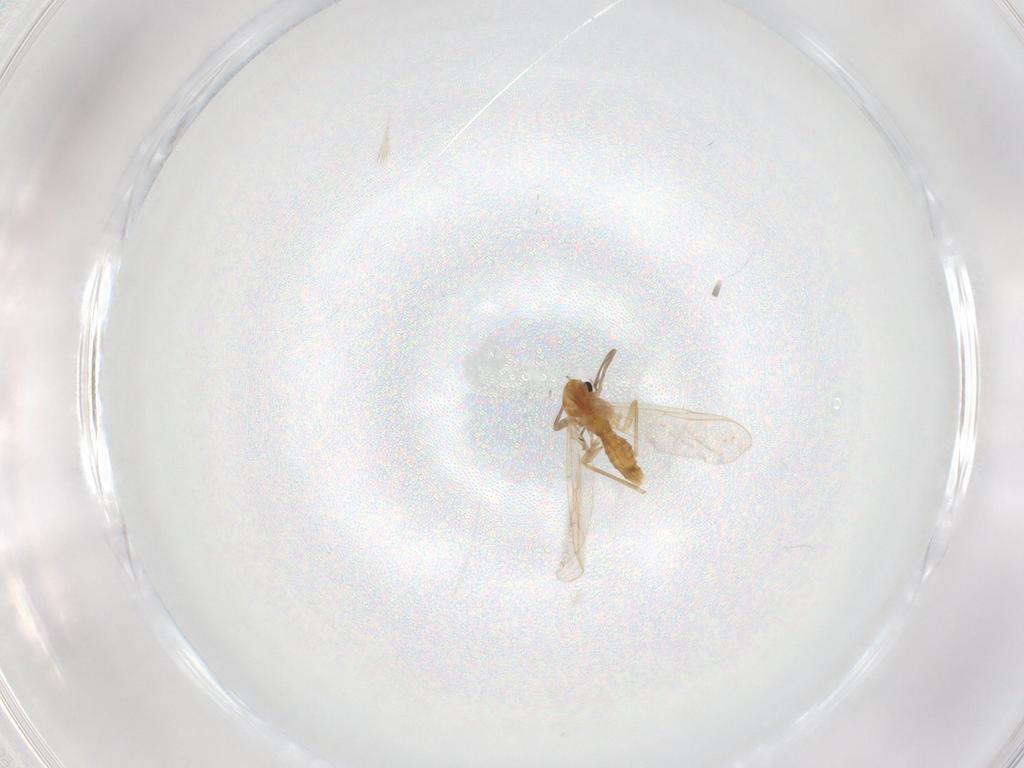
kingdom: Animalia
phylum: Arthropoda
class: Insecta
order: Diptera
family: Chironomidae
